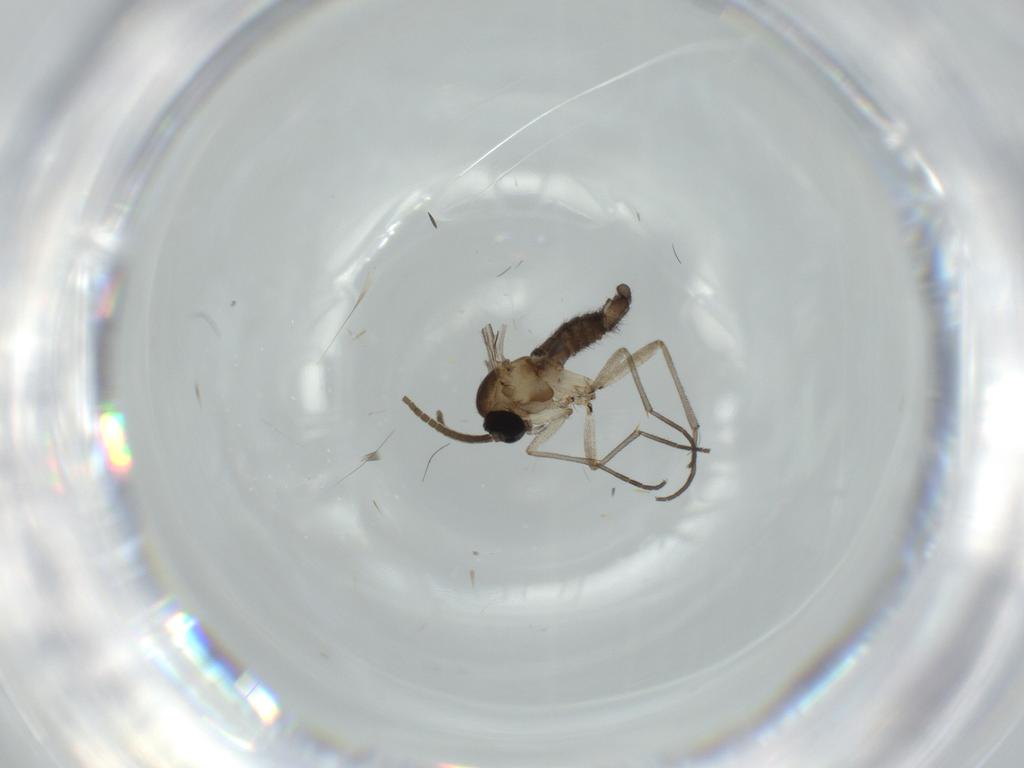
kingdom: Animalia
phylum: Arthropoda
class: Insecta
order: Diptera
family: Sciaridae
